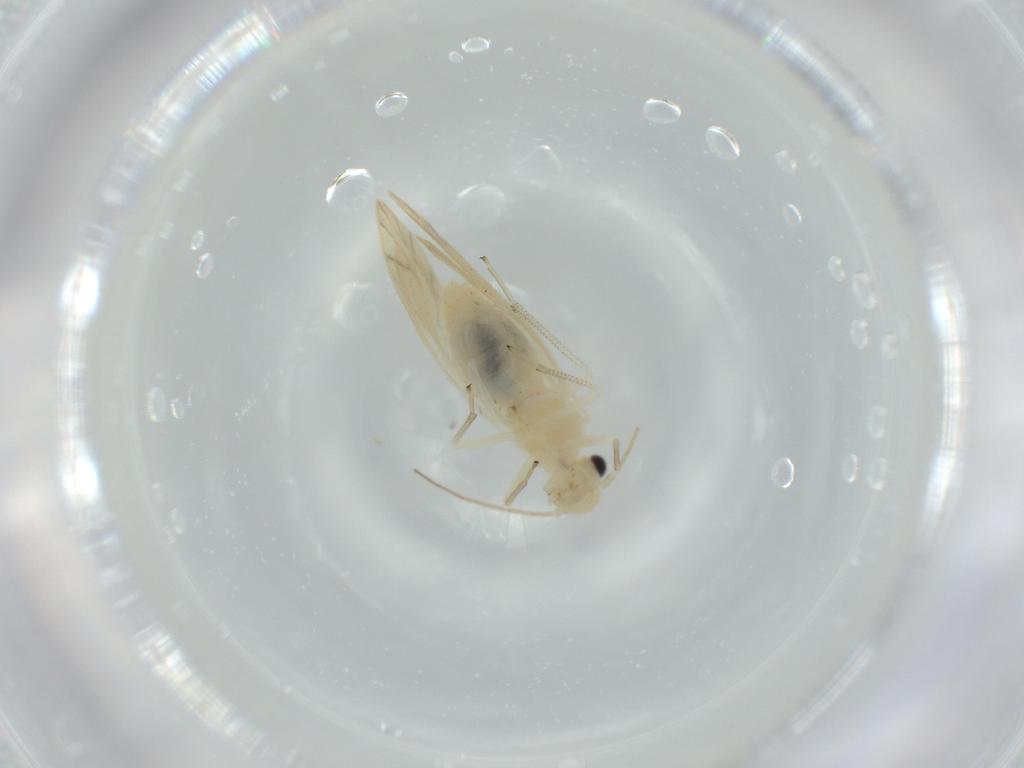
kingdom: Animalia
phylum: Arthropoda
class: Insecta
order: Psocodea
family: Caeciliusidae
